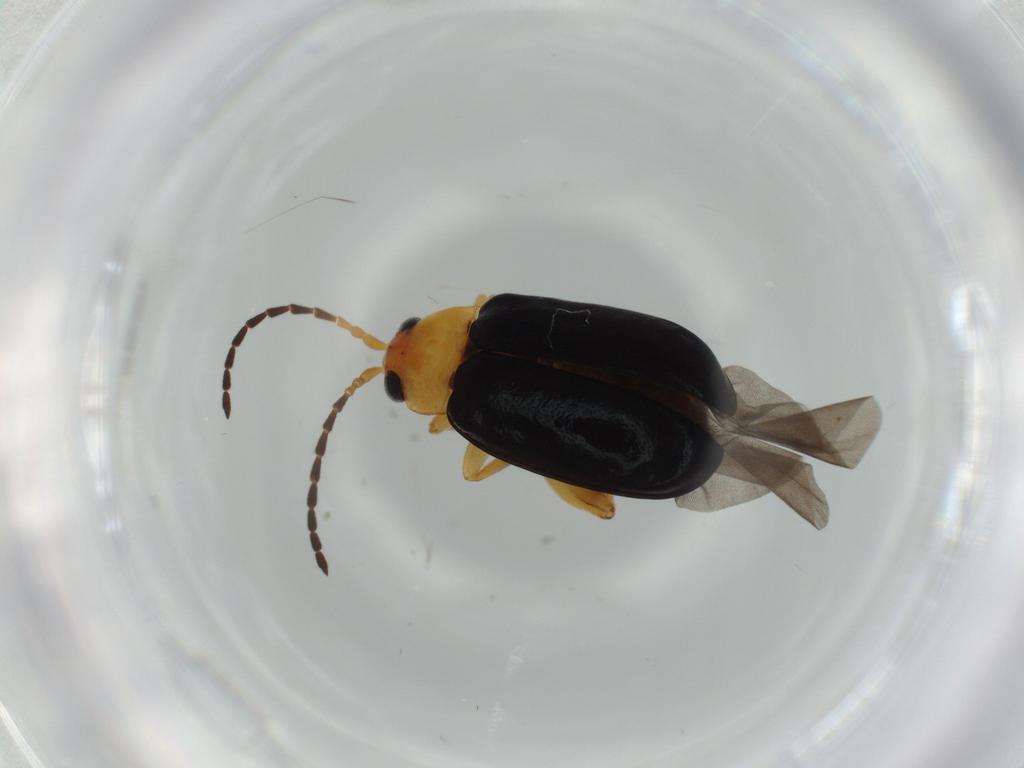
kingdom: Animalia
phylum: Arthropoda
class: Insecta
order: Coleoptera
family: Chrysomelidae
